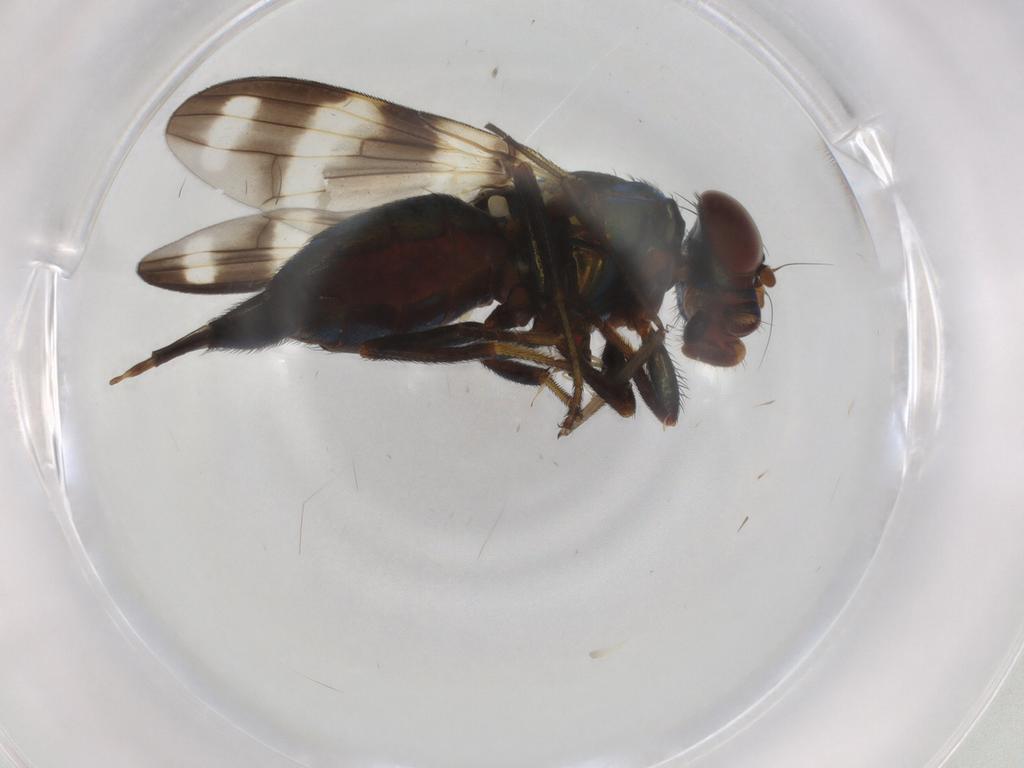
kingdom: Animalia
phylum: Arthropoda
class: Insecta
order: Diptera
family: Ulidiidae
